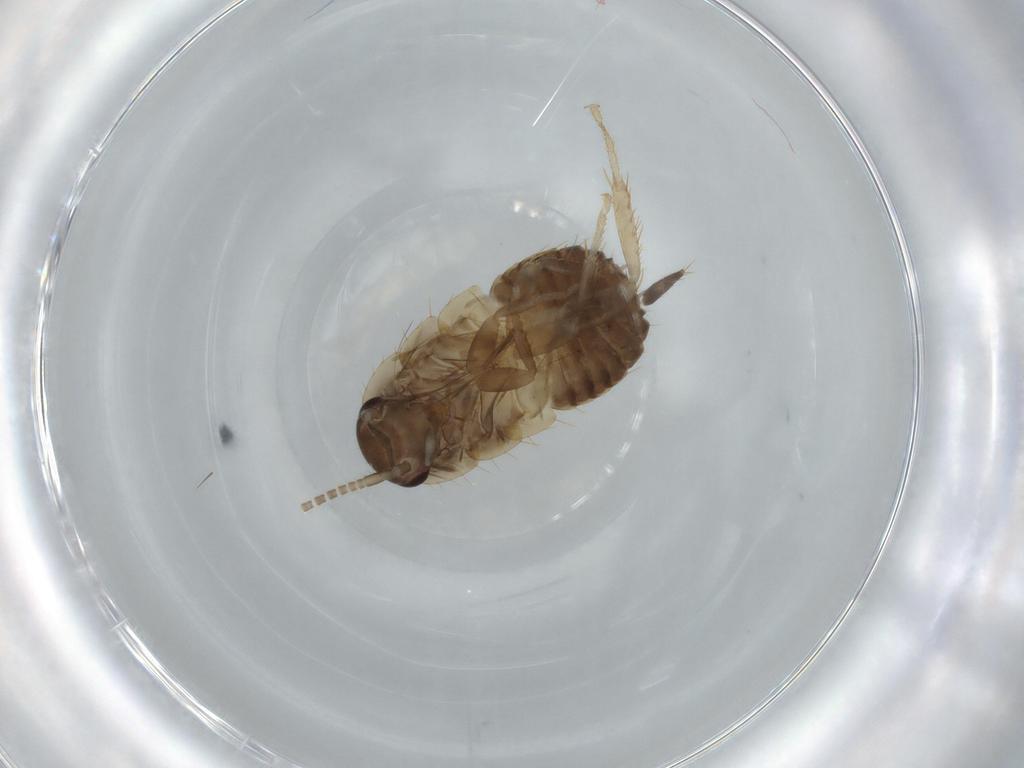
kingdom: Animalia
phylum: Arthropoda
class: Insecta
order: Blattodea
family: Ectobiidae
